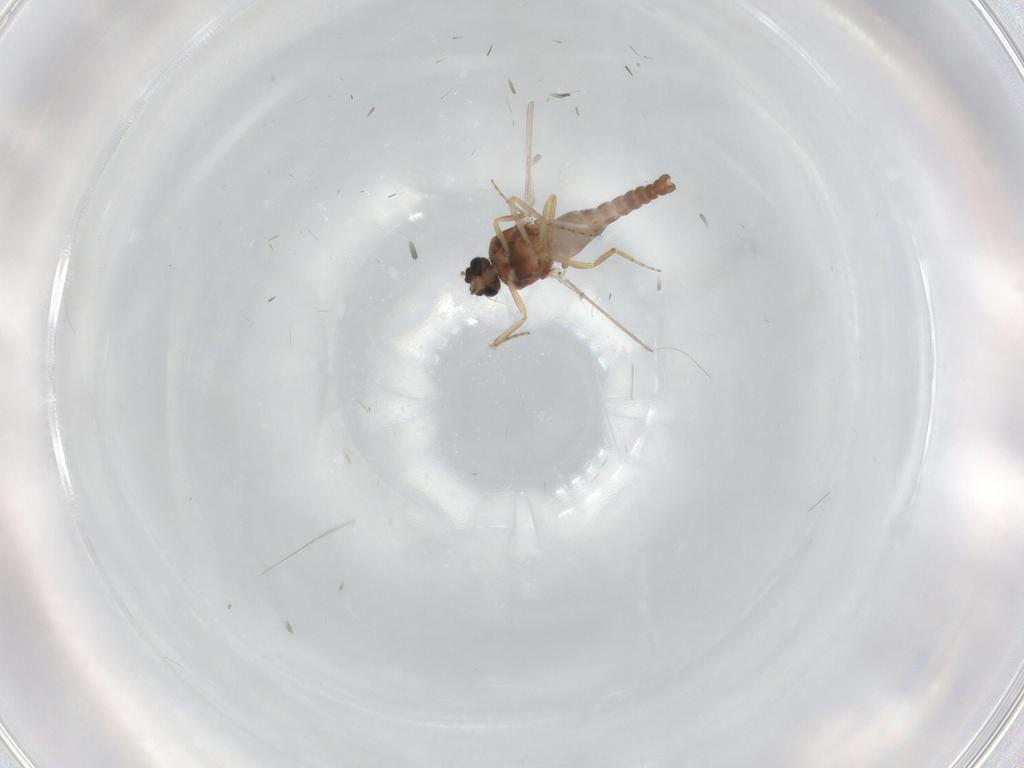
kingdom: Animalia
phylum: Arthropoda
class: Insecta
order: Diptera
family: Ceratopogonidae
